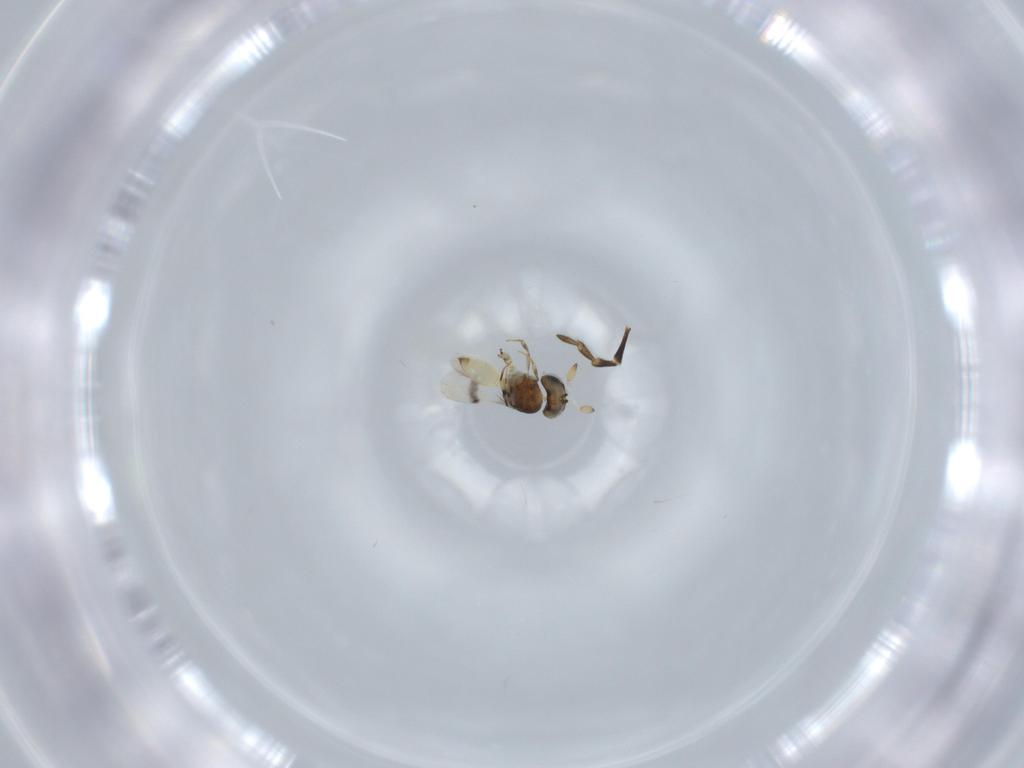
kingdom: Animalia
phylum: Arthropoda
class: Insecta
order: Hymenoptera
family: Scelionidae
